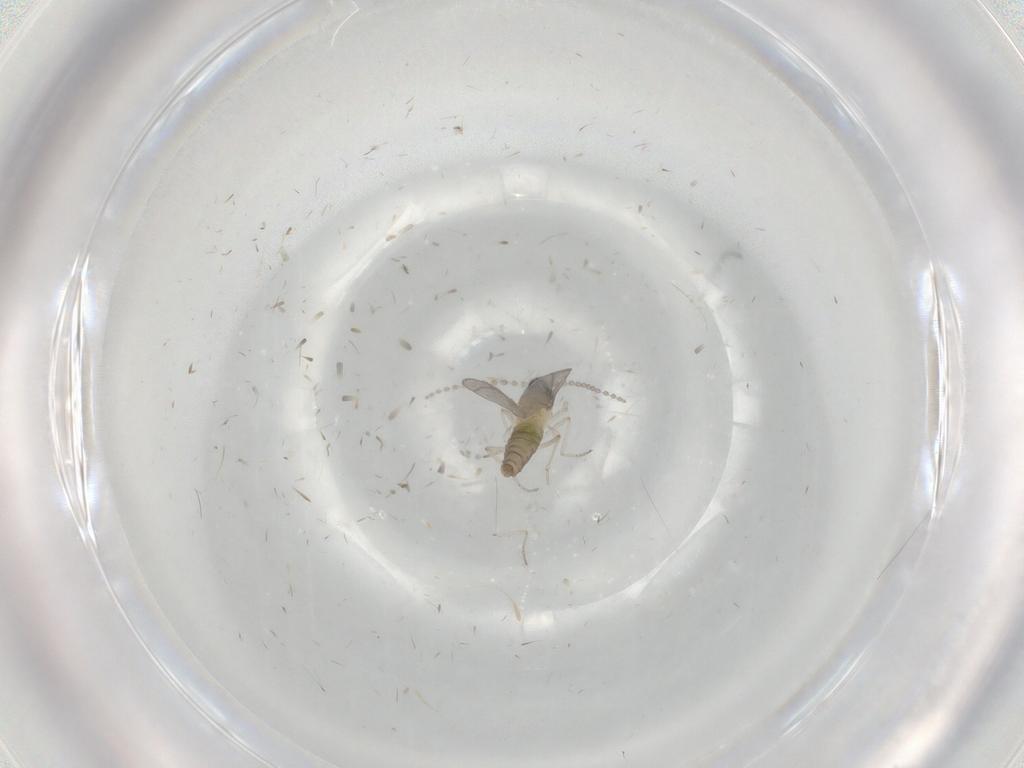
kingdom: Animalia
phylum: Arthropoda
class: Insecta
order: Diptera
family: Cecidomyiidae
